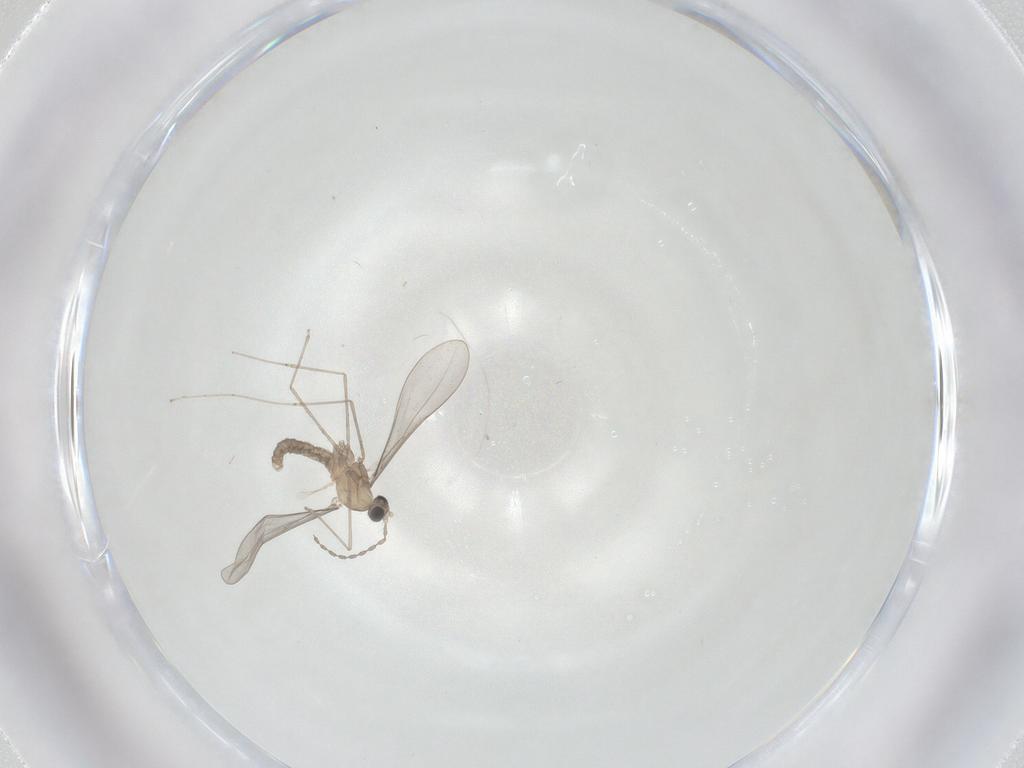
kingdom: Animalia
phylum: Arthropoda
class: Insecta
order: Diptera
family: Cecidomyiidae
